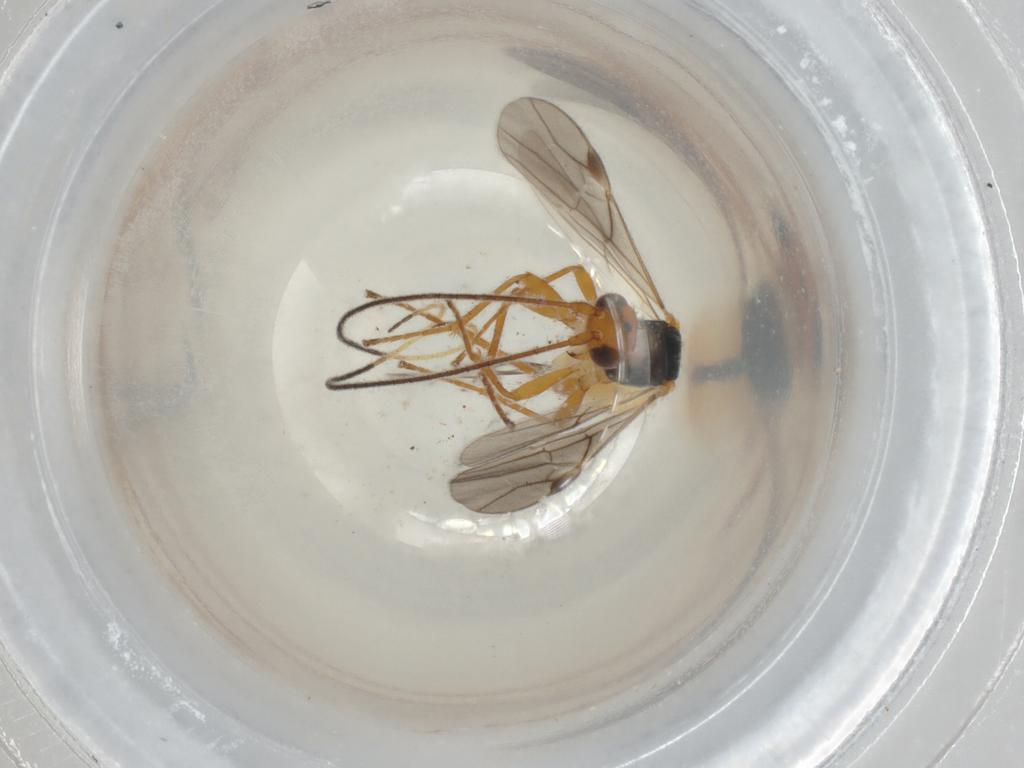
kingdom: Animalia
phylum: Arthropoda
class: Insecta
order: Hymenoptera
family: Braconidae
